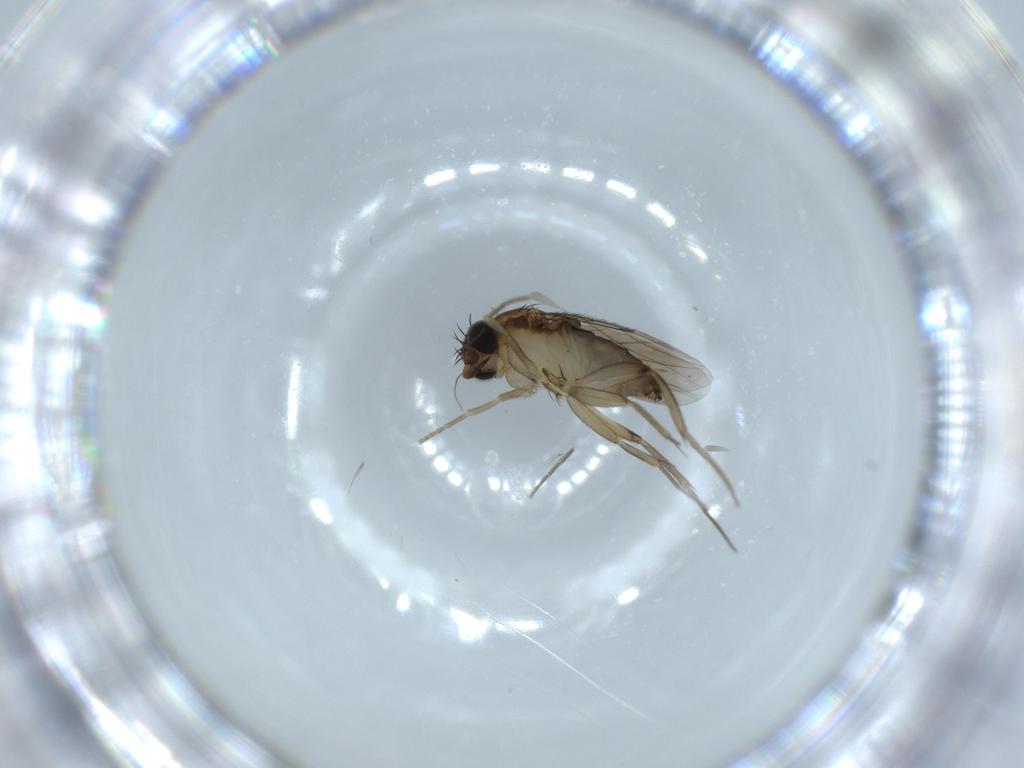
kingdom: Animalia
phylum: Arthropoda
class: Insecta
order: Diptera
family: Phoridae
